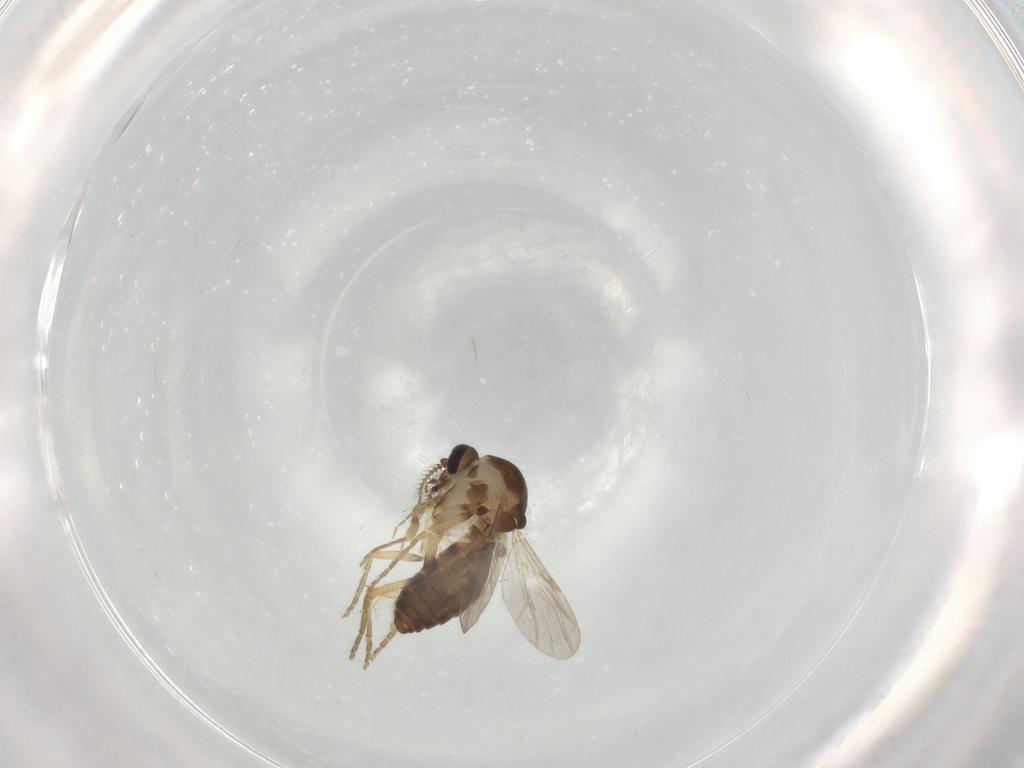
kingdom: Animalia
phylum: Arthropoda
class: Insecta
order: Diptera
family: Ceratopogonidae
